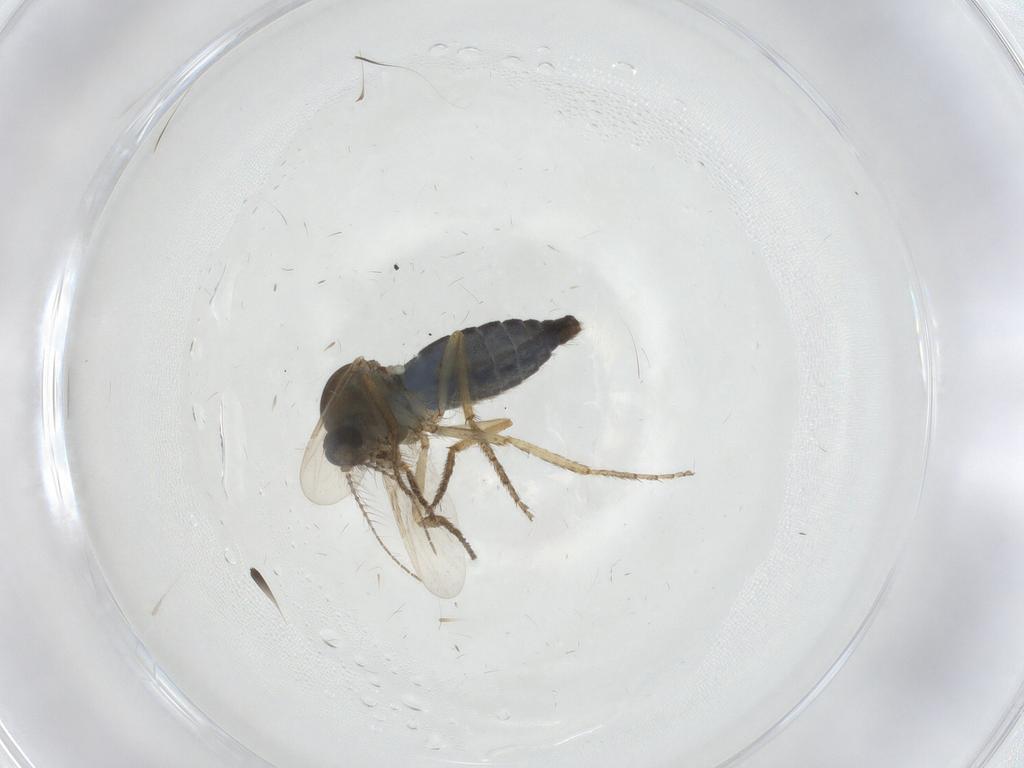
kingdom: Animalia
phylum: Arthropoda
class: Insecta
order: Diptera
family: Ceratopogonidae
